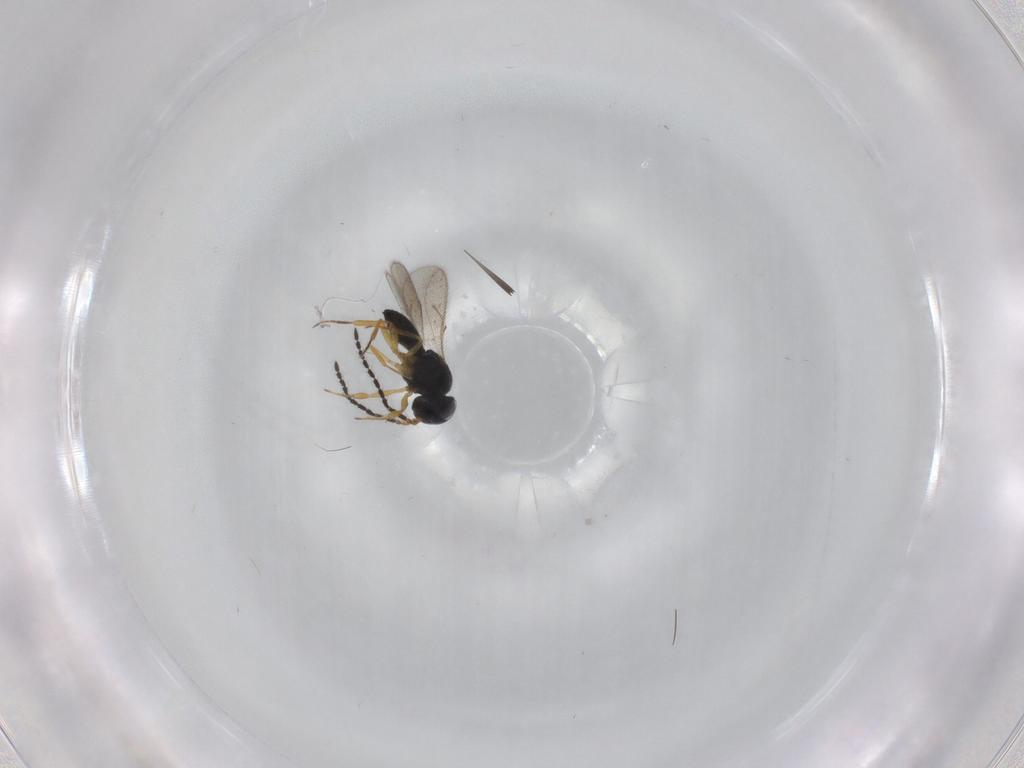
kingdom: Animalia
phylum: Arthropoda
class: Insecta
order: Hymenoptera
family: Scelionidae
